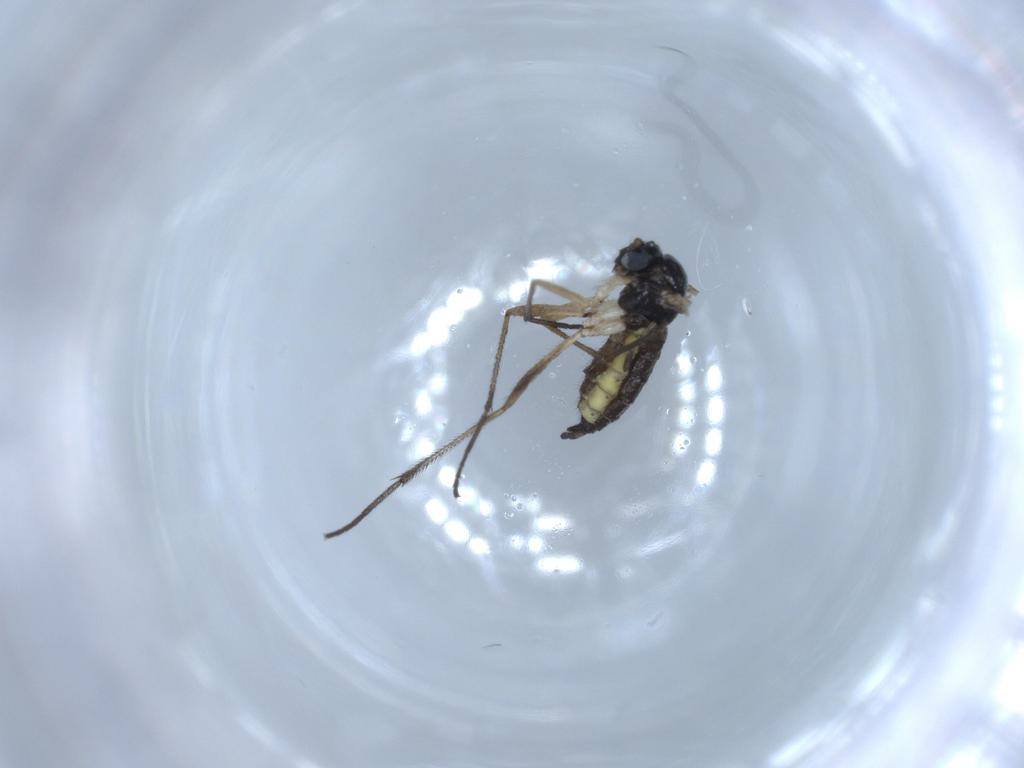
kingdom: Animalia
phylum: Arthropoda
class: Insecta
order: Diptera
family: Sciaridae
